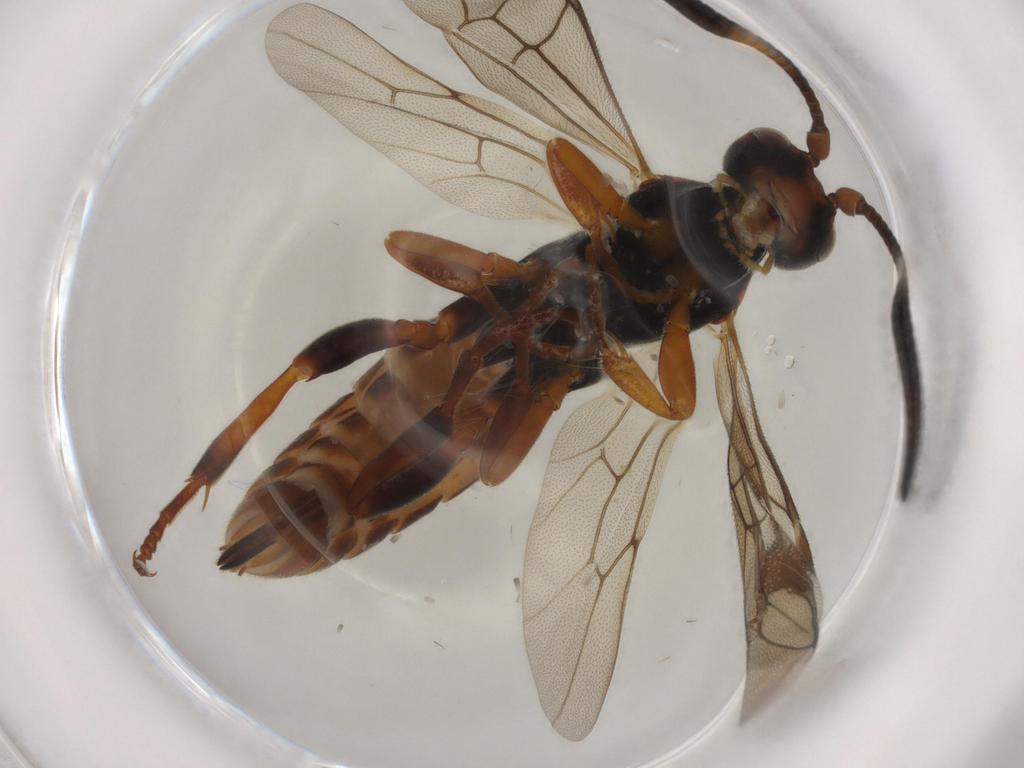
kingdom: Animalia
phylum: Arthropoda
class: Insecta
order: Hymenoptera
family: Ichneumonidae
